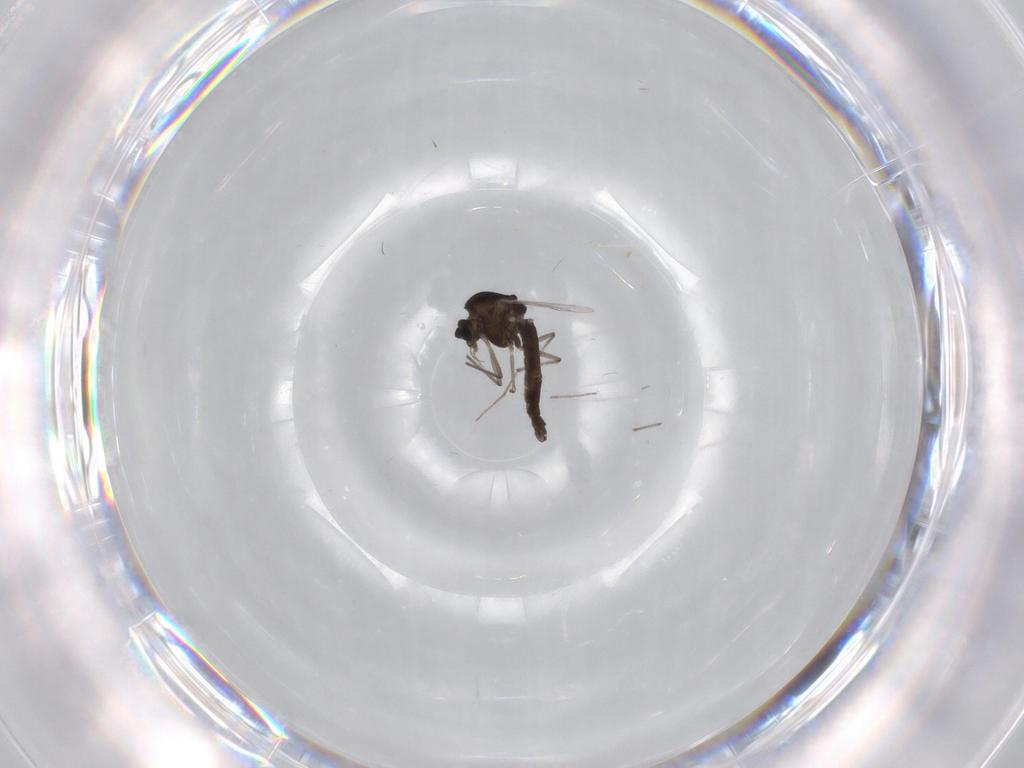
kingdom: Animalia
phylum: Arthropoda
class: Insecta
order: Diptera
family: Chironomidae
